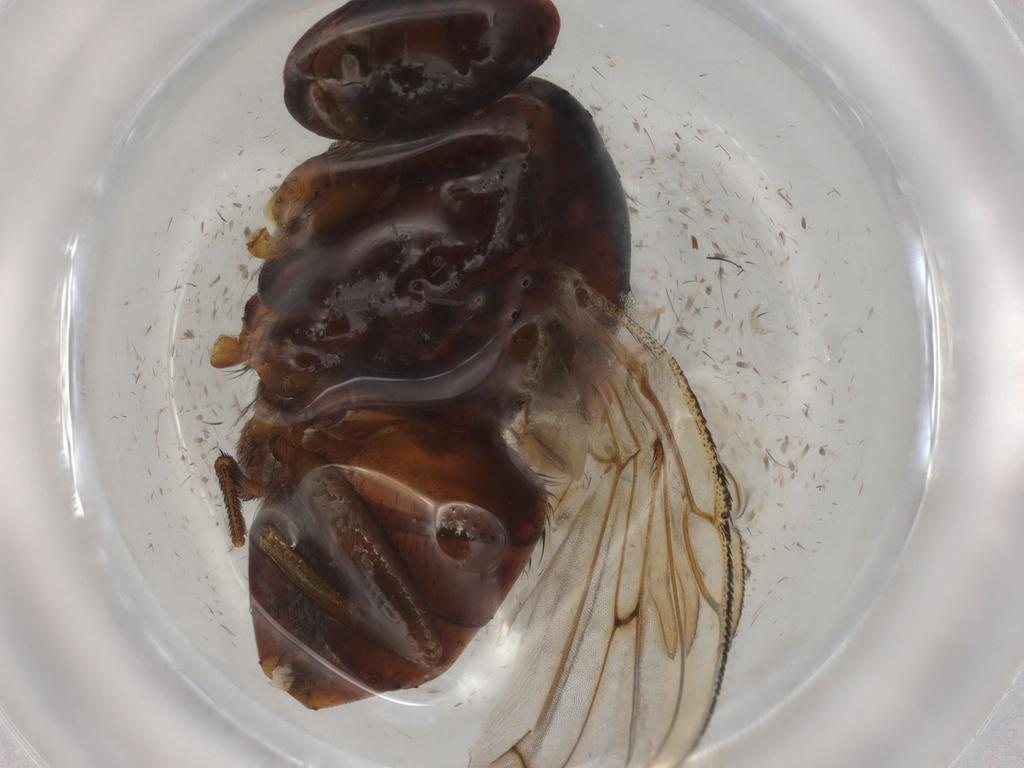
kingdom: Animalia
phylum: Arthropoda
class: Insecta
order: Diptera
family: Tachinidae
